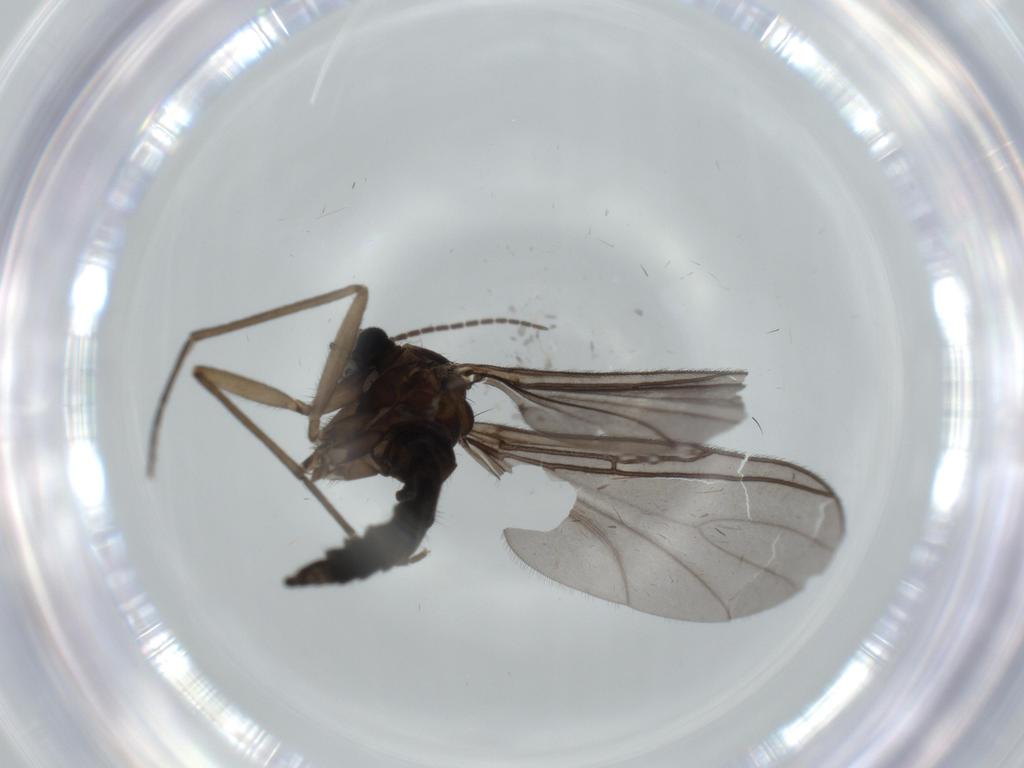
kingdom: Animalia
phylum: Arthropoda
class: Insecta
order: Diptera
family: Sciaridae
